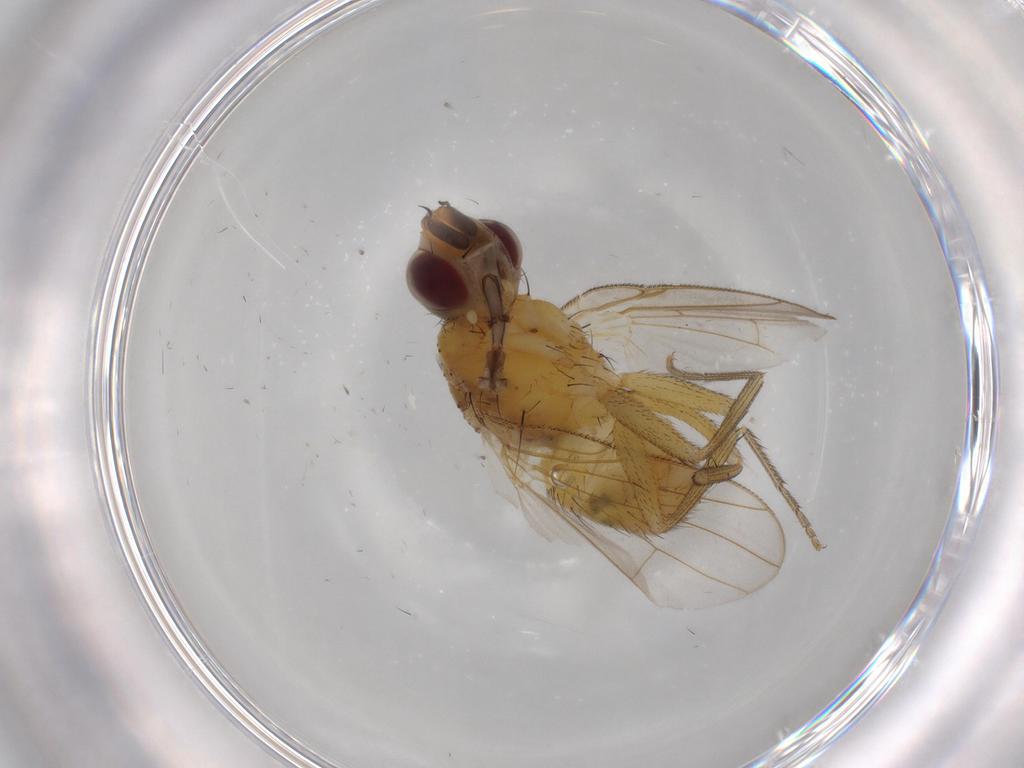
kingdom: Animalia
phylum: Arthropoda
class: Insecta
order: Diptera
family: Muscidae
